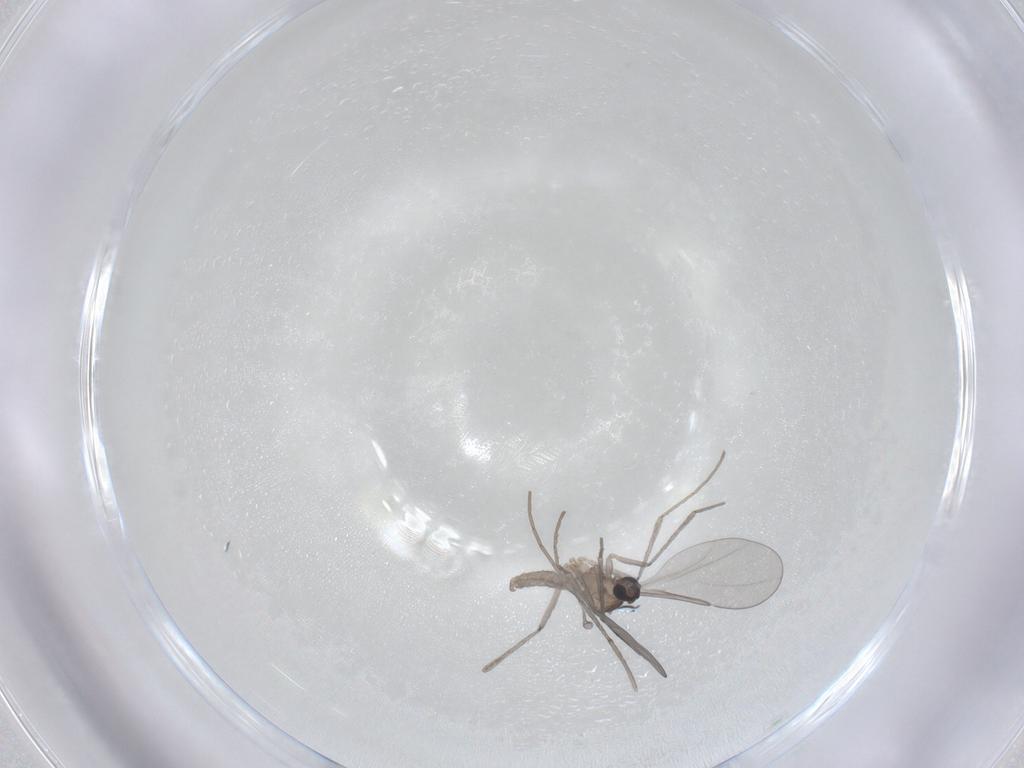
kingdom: Animalia
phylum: Arthropoda
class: Insecta
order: Diptera
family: Cecidomyiidae
